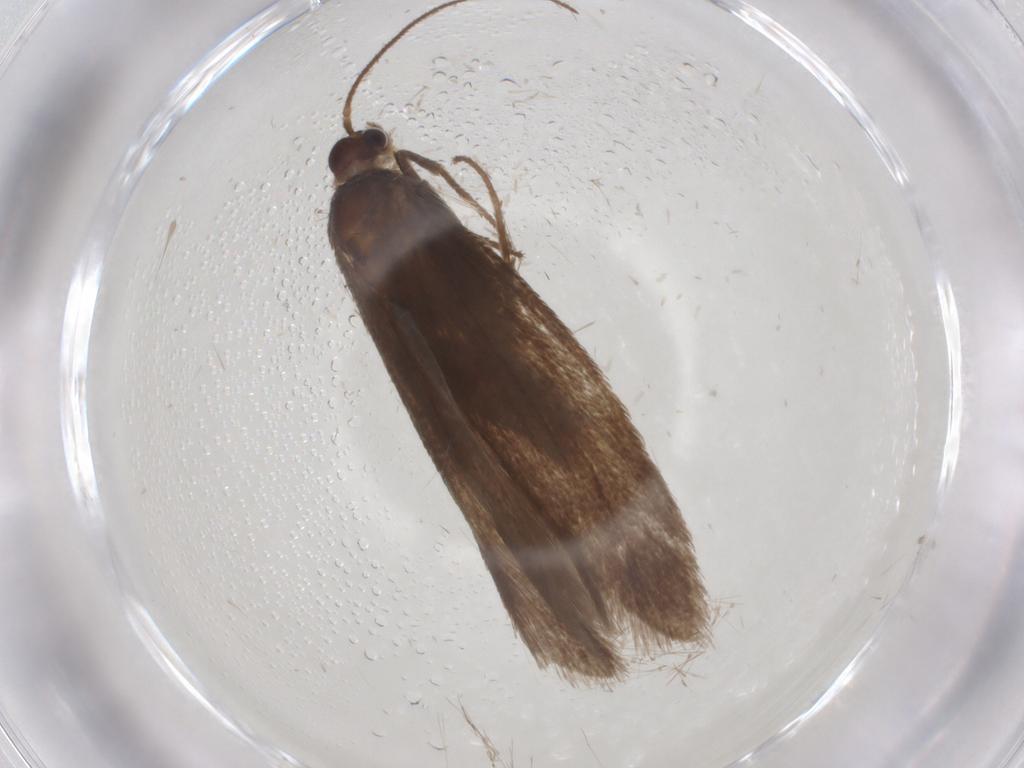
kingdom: Animalia
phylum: Arthropoda
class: Insecta
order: Lepidoptera
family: Limacodidae
